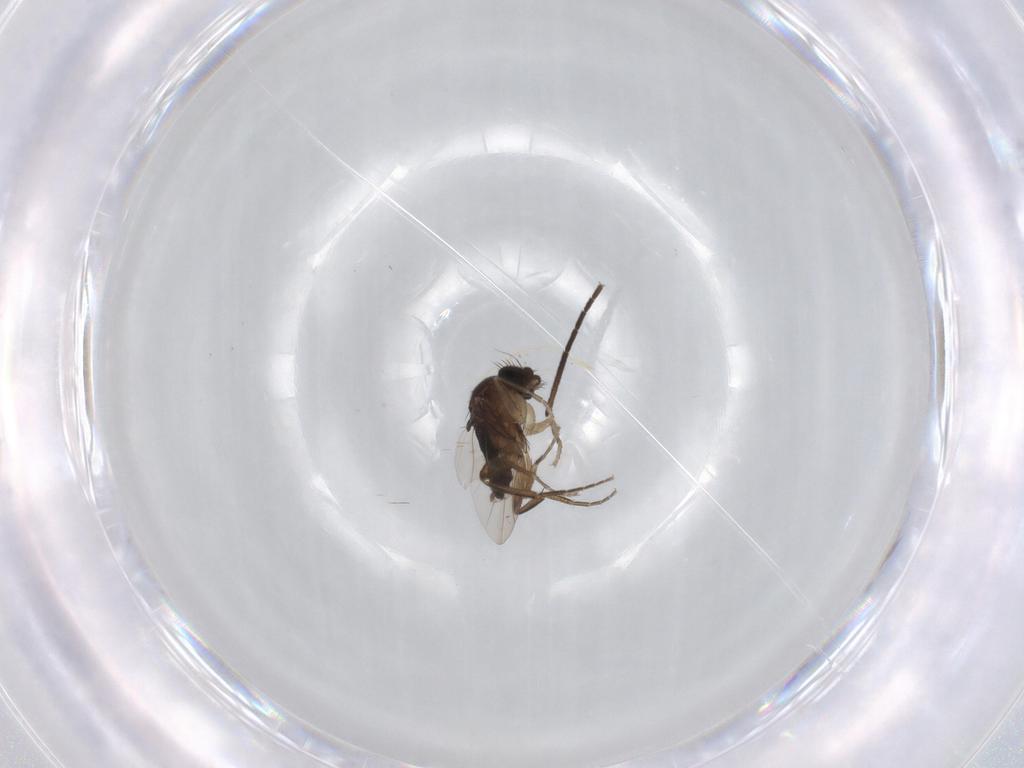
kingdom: Animalia
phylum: Arthropoda
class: Insecta
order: Diptera
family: Phoridae
